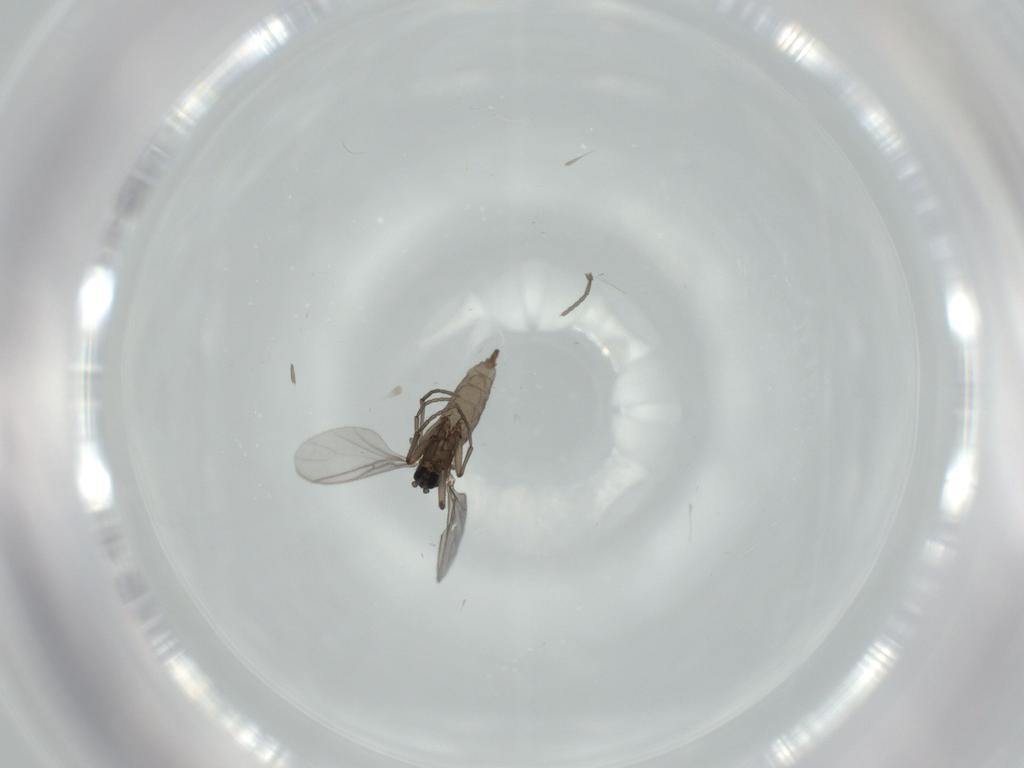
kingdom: Animalia
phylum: Arthropoda
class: Insecta
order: Diptera
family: Sciaridae
